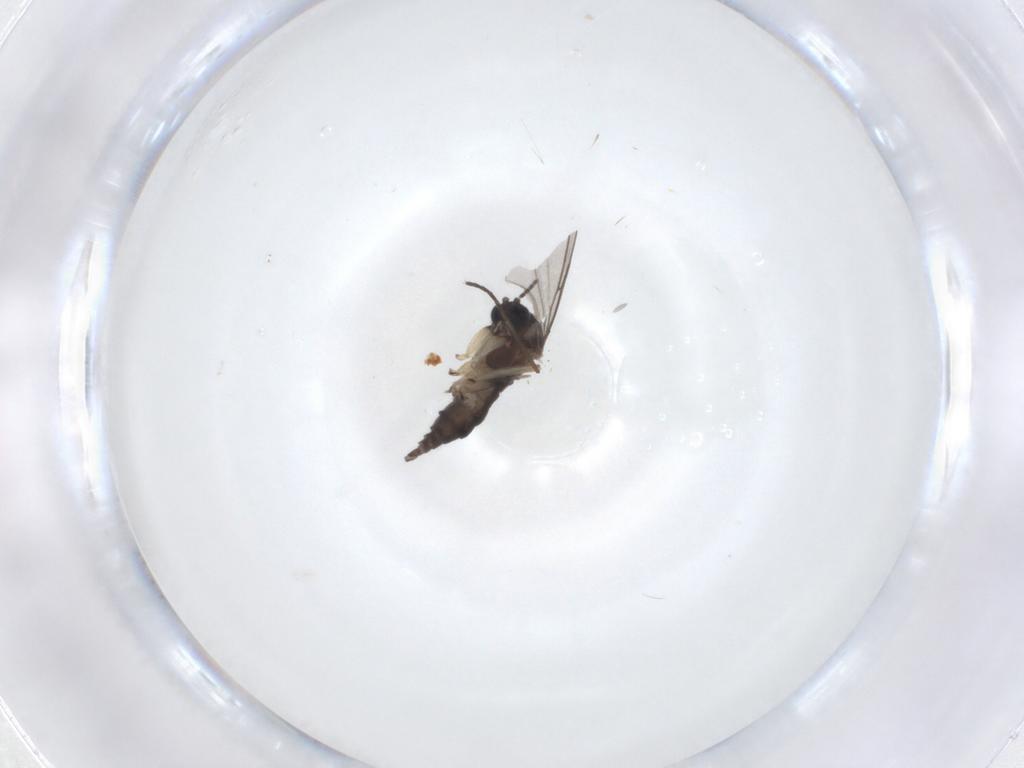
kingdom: Animalia
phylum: Arthropoda
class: Insecta
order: Diptera
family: Sciaridae
